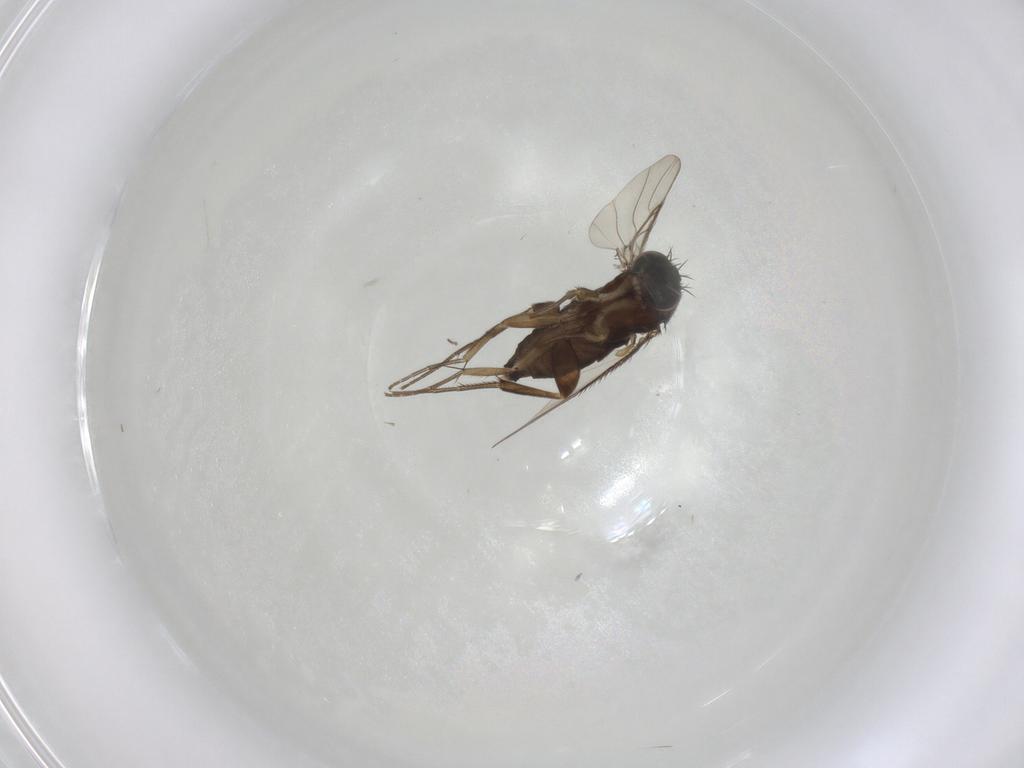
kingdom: Animalia
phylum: Arthropoda
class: Insecta
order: Diptera
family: Phoridae
